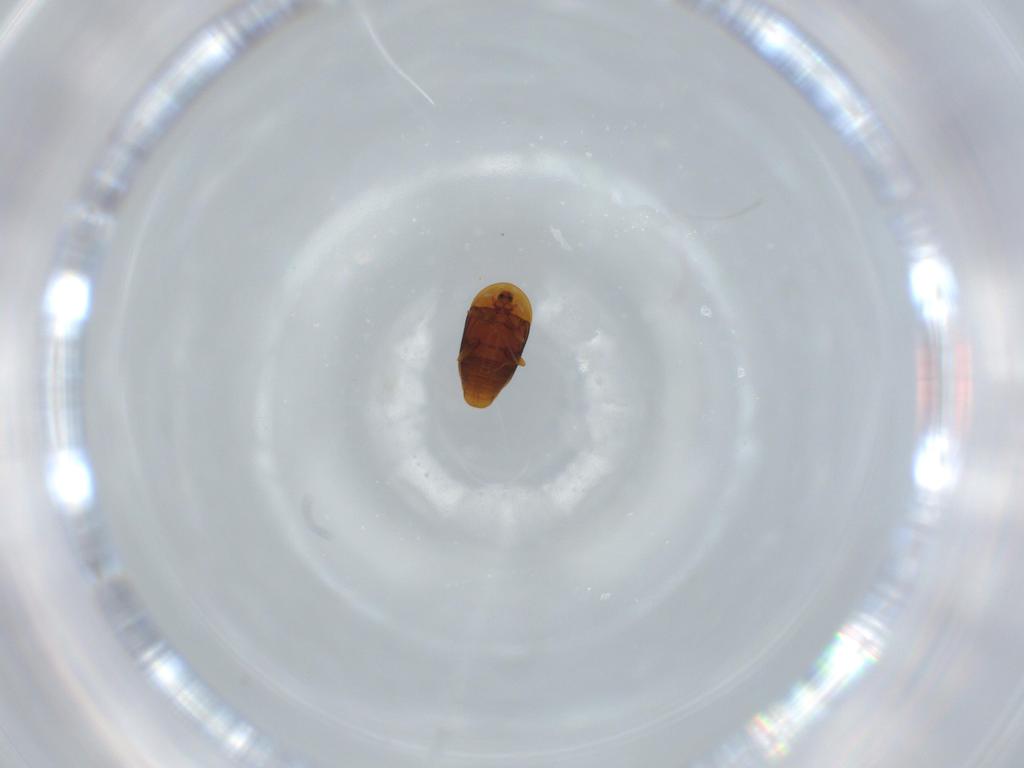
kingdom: Animalia
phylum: Arthropoda
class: Insecta
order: Coleoptera
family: Corylophidae
